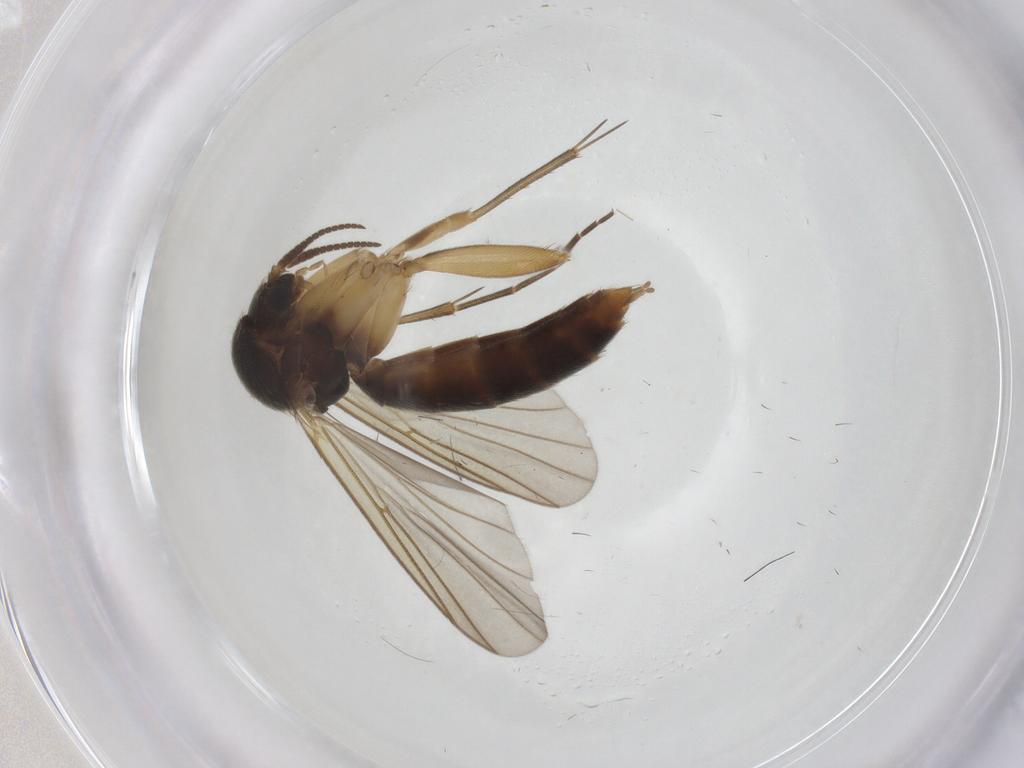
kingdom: Animalia
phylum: Arthropoda
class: Insecta
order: Diptera
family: Mycetophilidae
